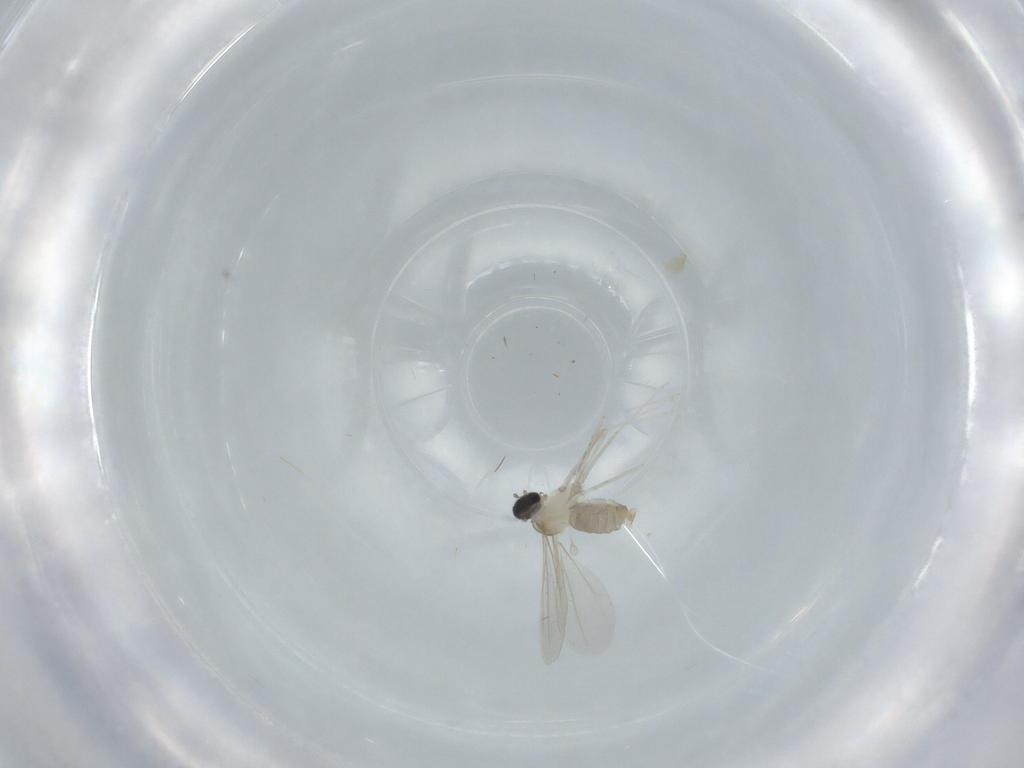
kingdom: Animalia
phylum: Arthropoda
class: Insecta
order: Diptera
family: Cecidomyiidae
